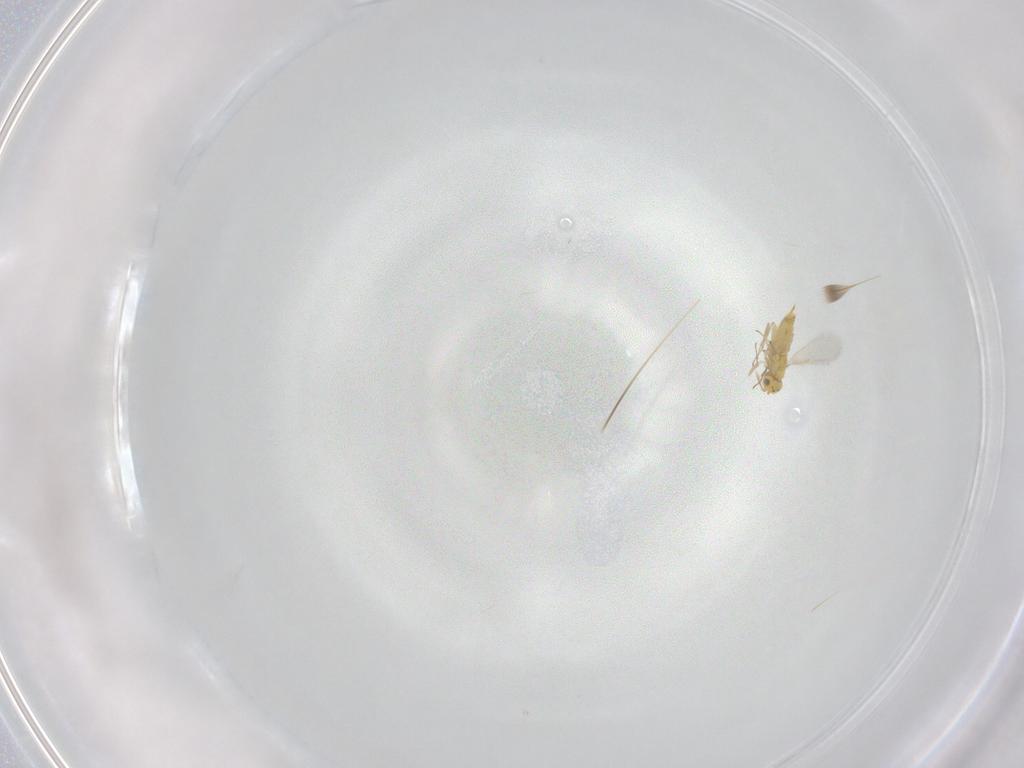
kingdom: Animalia
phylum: Arthropoda
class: Insecta
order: Hymenoptera
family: Aphelinidae
